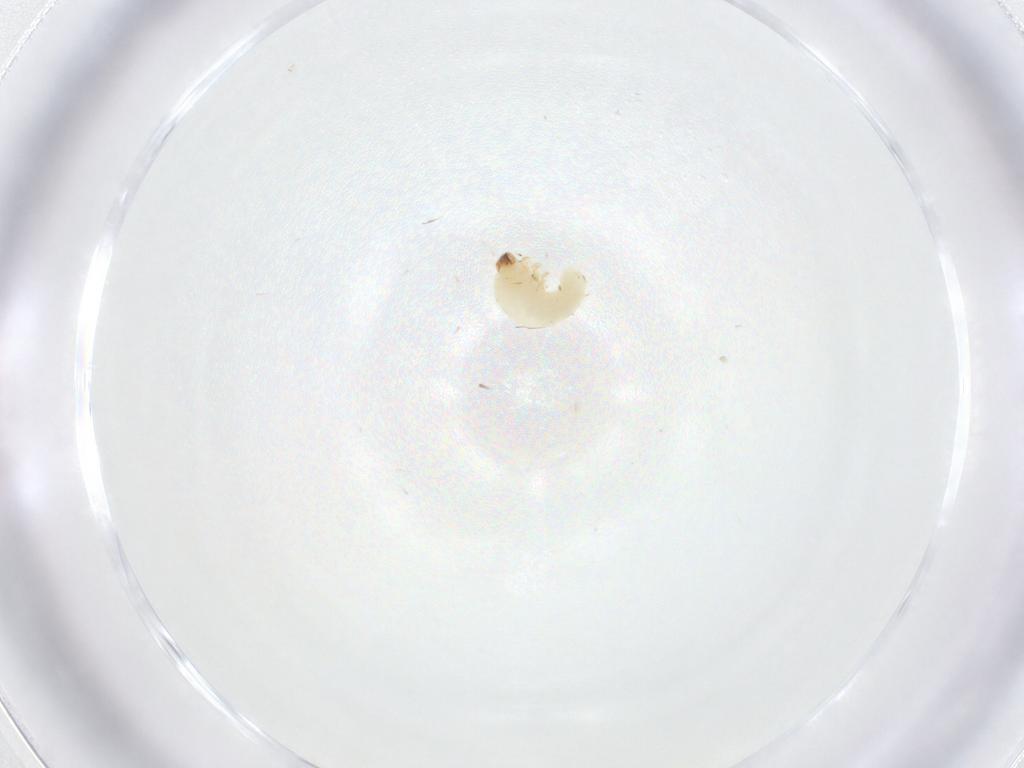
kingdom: Animalia
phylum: Arthropoda
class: Insecta
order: Coleoptera
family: Bostrichidae
